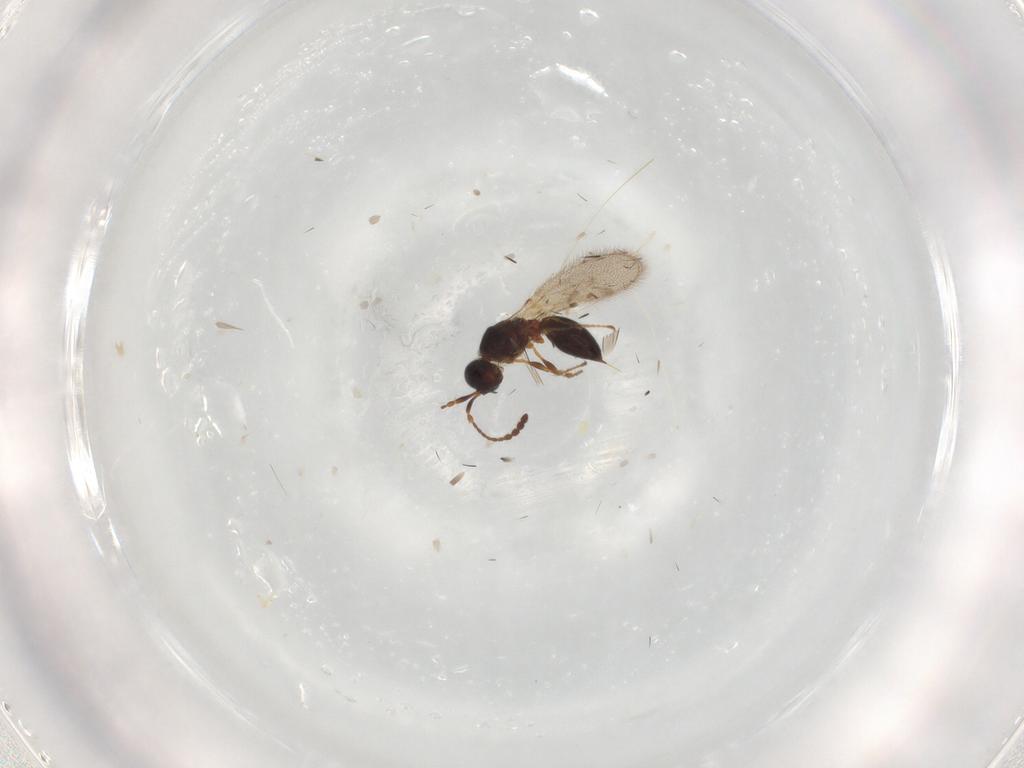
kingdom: Animalia
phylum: Arthropoda
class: Insecta
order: Hymenoptera
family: Diapriidae
